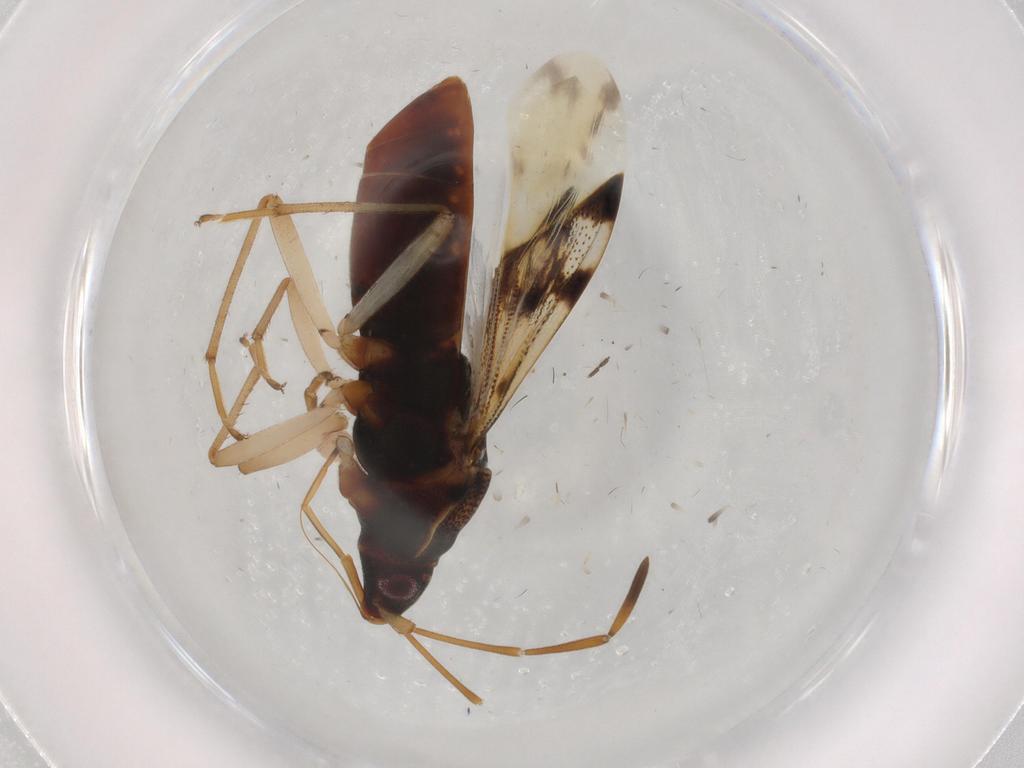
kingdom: Animalia
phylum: Arthropoda
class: Insecta
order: Hemiptera
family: Rhyparochromidae
